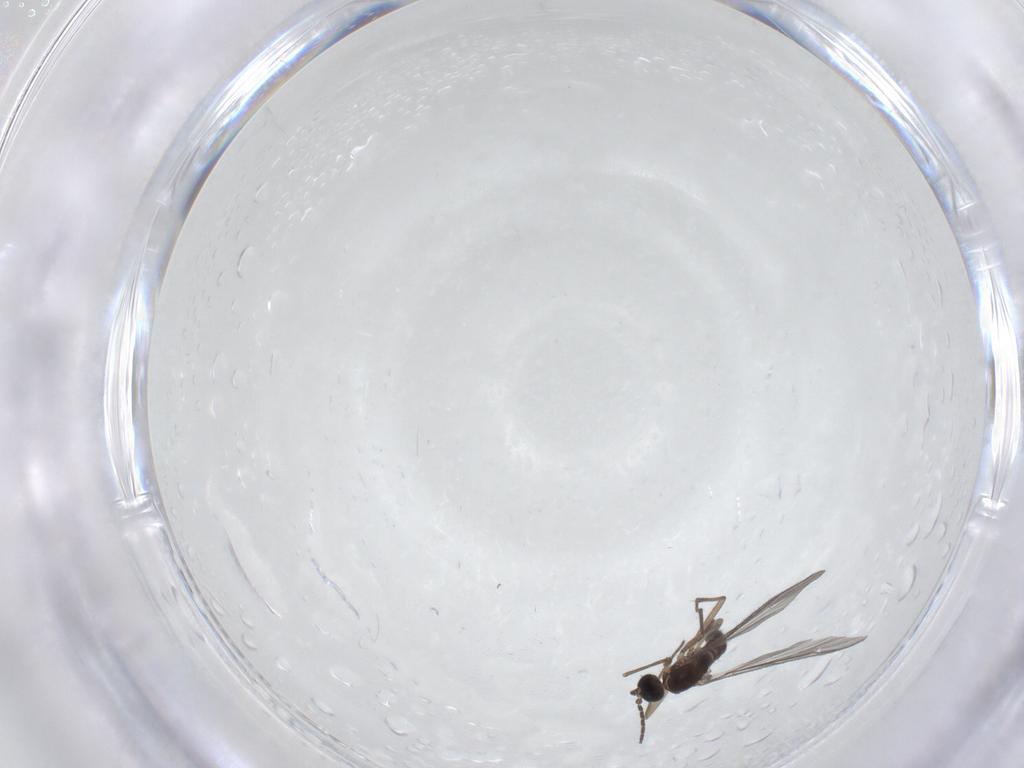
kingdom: Animalia
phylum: Arthropoda
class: Insecta
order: Diptera
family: Sciaridae
